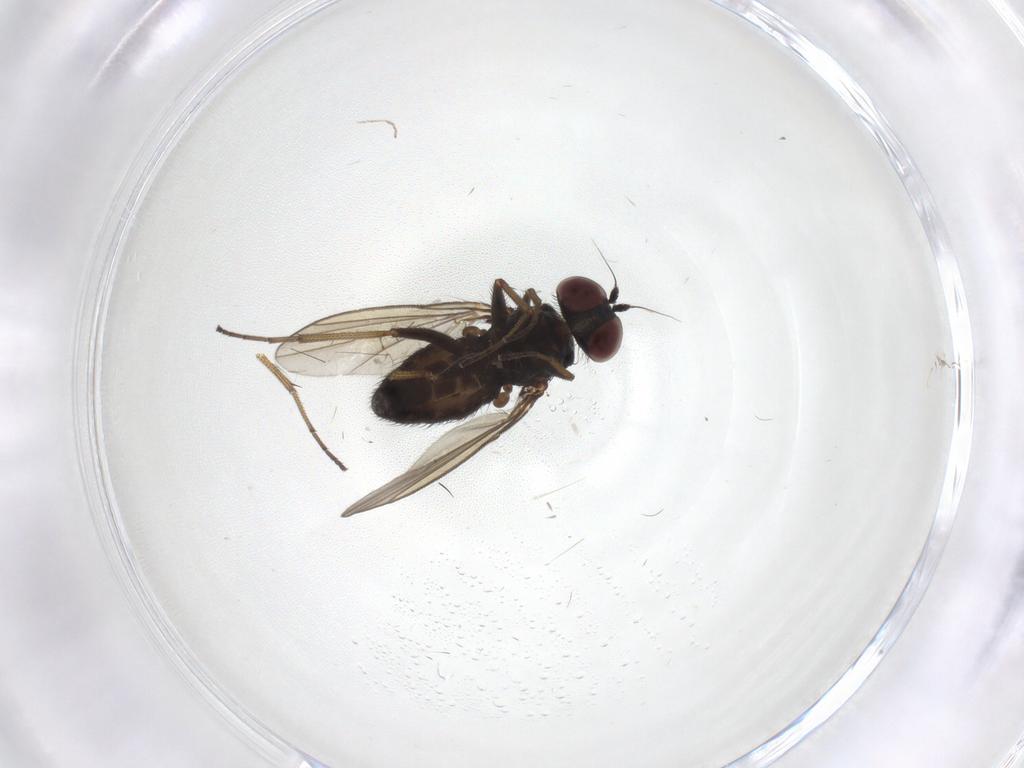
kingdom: Animalia
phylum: Arthropoda
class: Insecta
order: Diptera
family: Dolichopodidae
